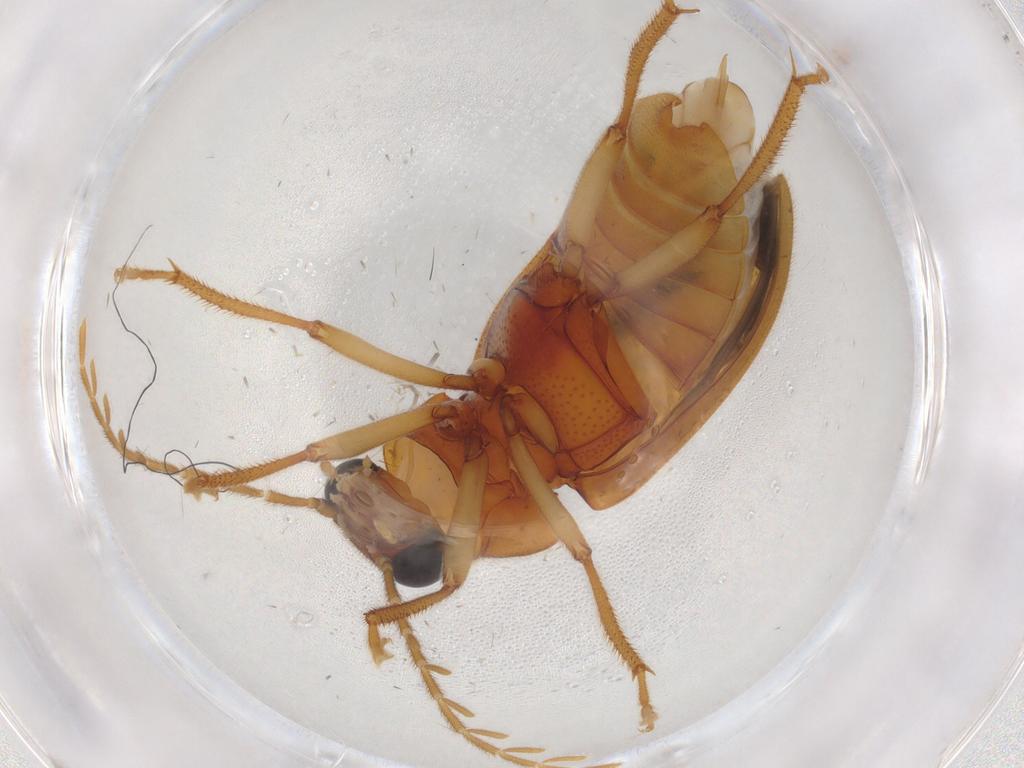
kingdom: Animalia
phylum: Arthropoda
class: Insecta
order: Coleoptera
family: Ptilodactylidae
